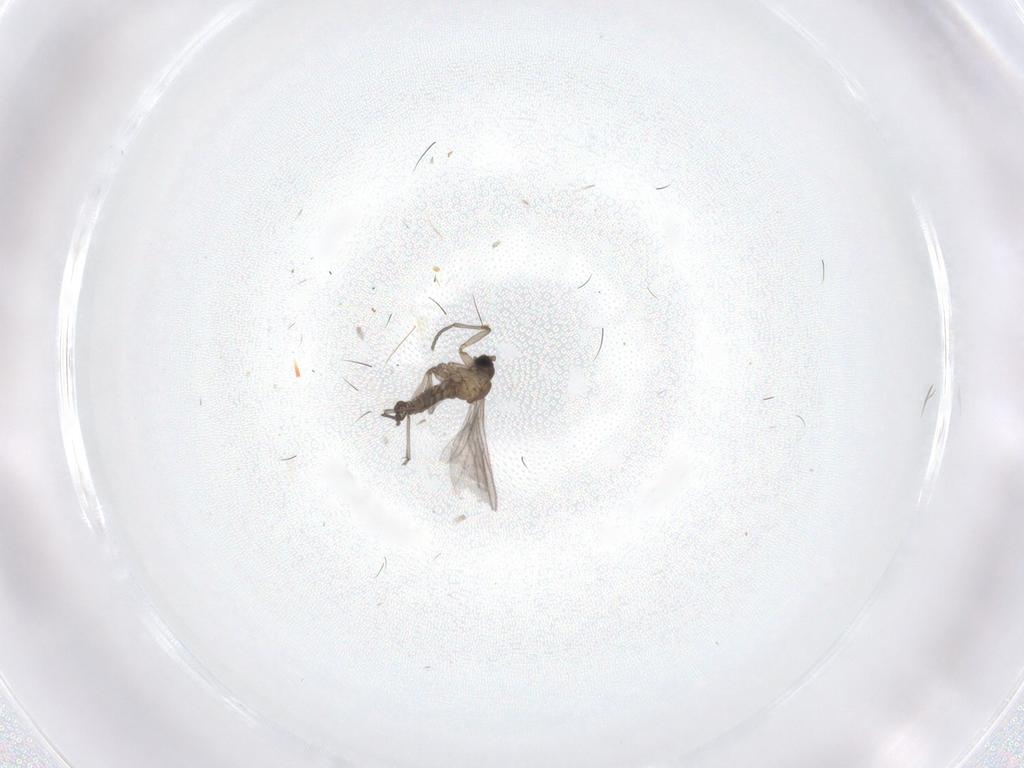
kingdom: Animalia
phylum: Arthropoda
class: Insecta
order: Diptera
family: Sciaridae
